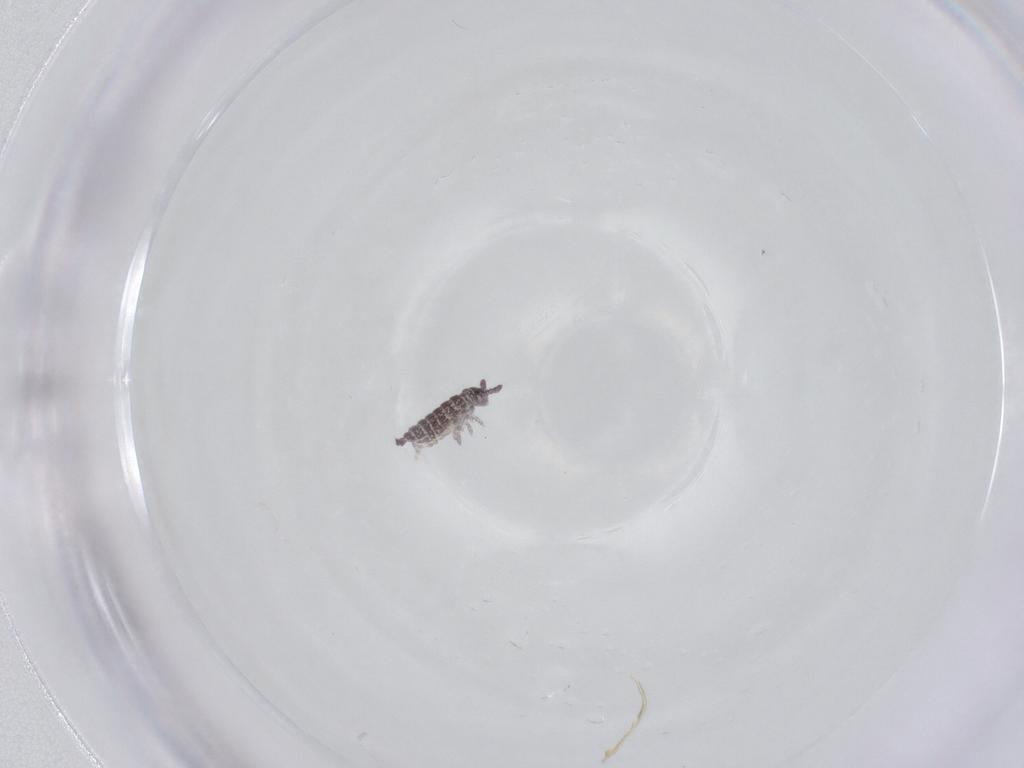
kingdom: Animalia
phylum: Arthropoda
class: Collembola
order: Poduromorpha
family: Hypogastruridae
